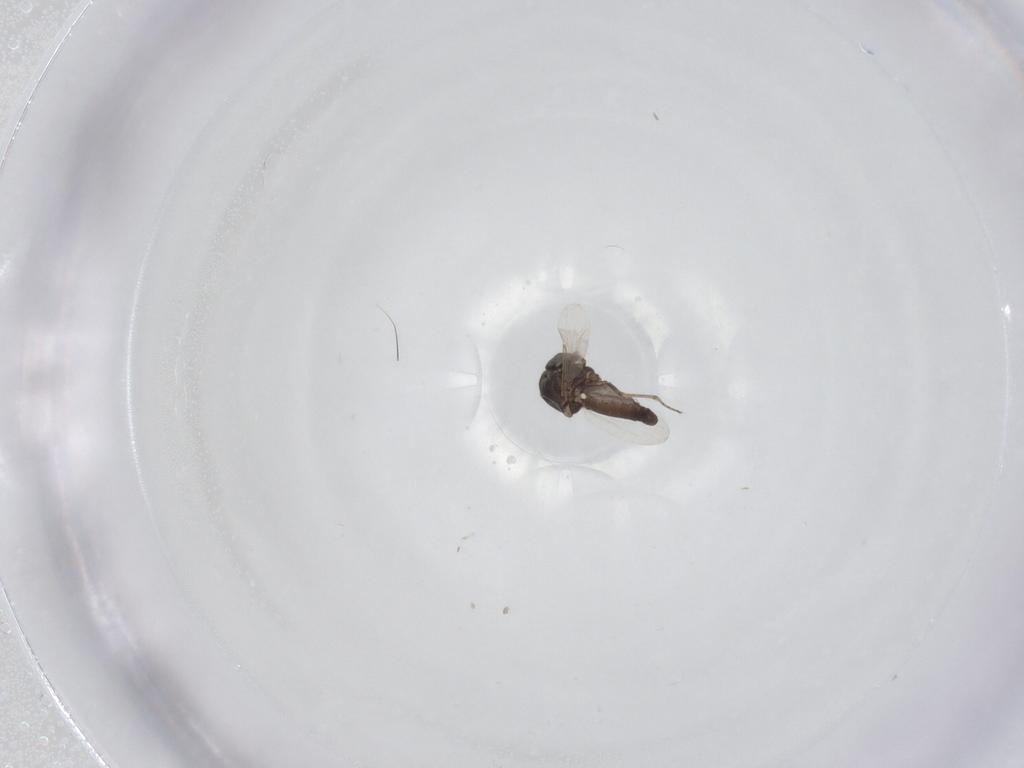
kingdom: Animalia
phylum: Arthropoda
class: Insecta
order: Diptera
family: Ceratopogonidae
